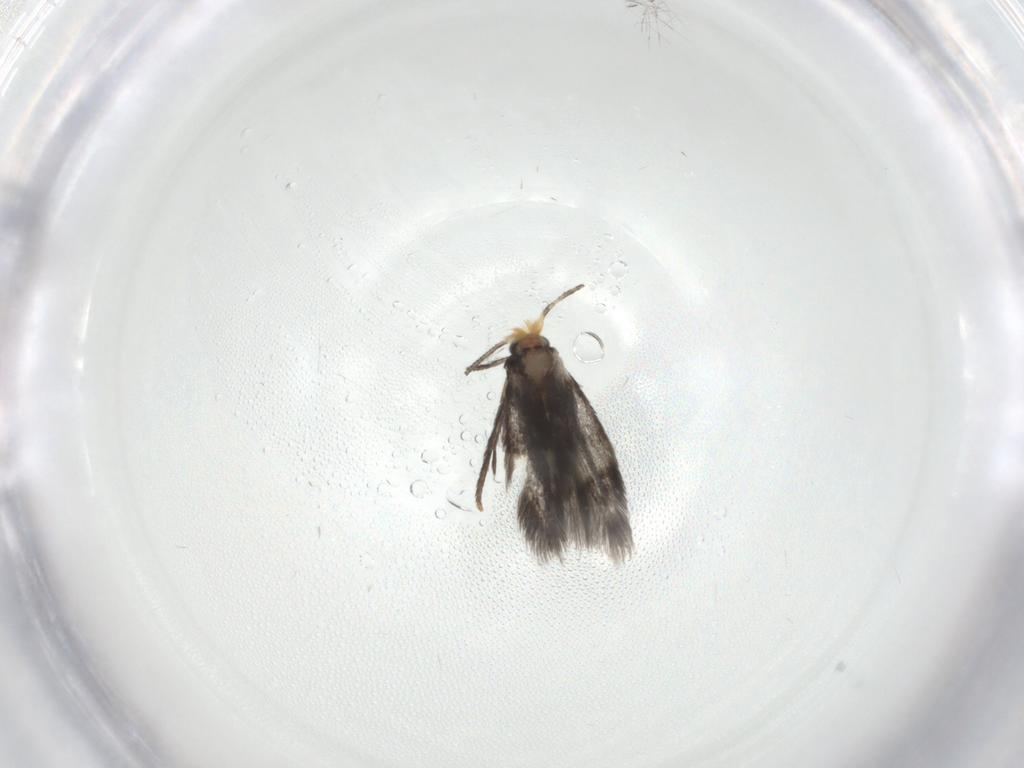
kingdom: Animalia
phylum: Arthropoda
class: Insecta
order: Lepidoptera
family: Nepticulidae
